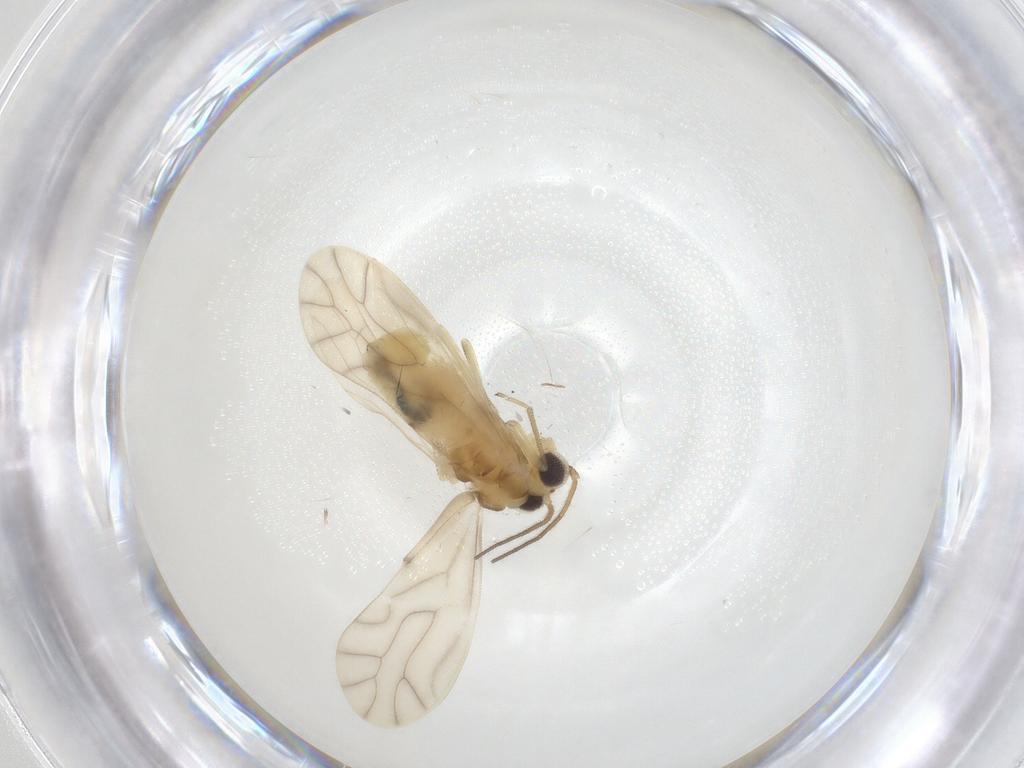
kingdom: Animalia
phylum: Arthropoda
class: Insecta
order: Psocodea
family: Caeciliusidae
